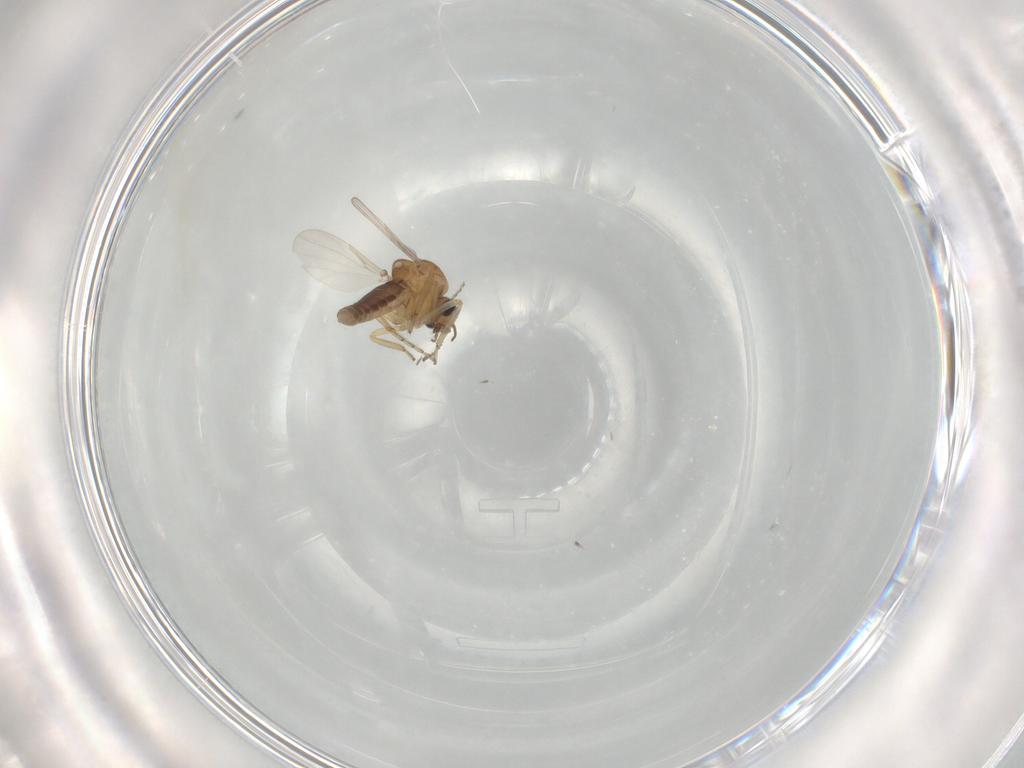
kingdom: Animalia
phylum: Arthropoda
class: Insecta
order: Diptera
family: Ceratopogonidae
